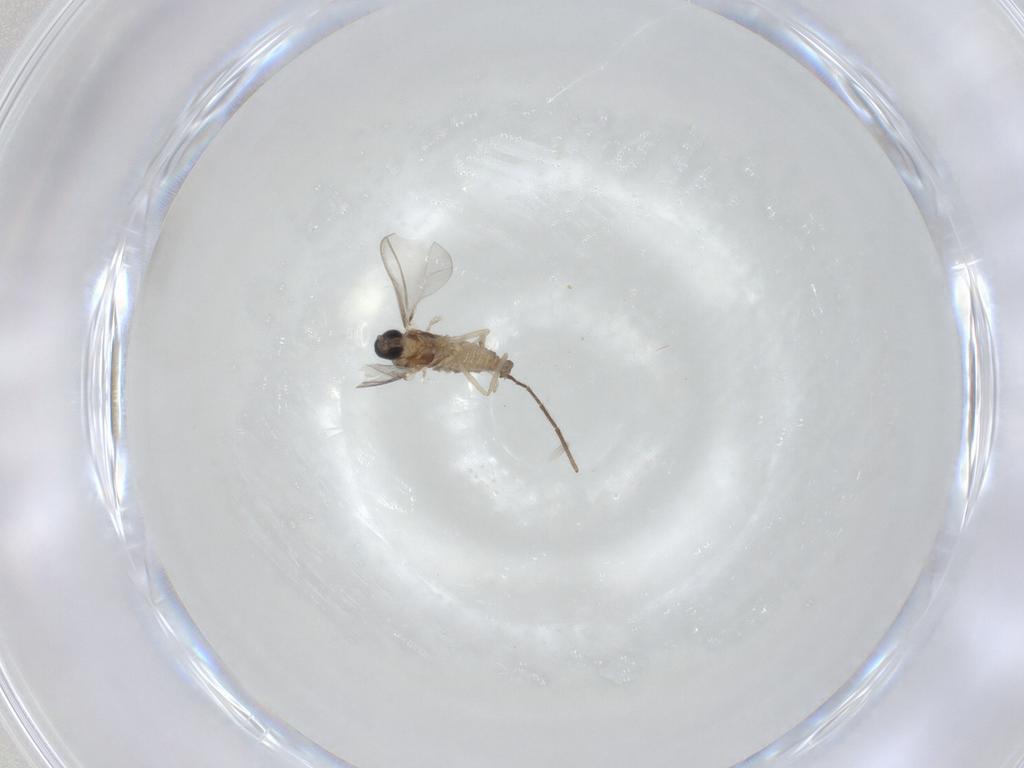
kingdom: Animalia
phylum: Arthropoda
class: Insecta
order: Diptera
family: Cecidomyiidae
